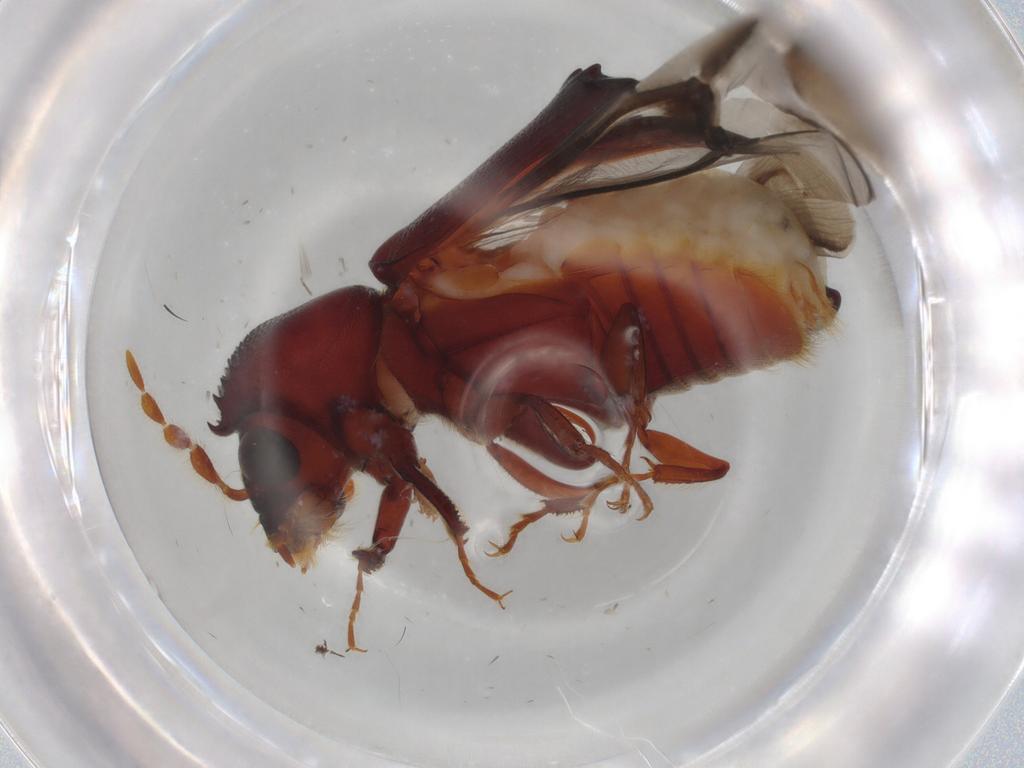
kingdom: Animalia
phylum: Arthropoda
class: Insecta
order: Coleoptera
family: Bostrichidae
